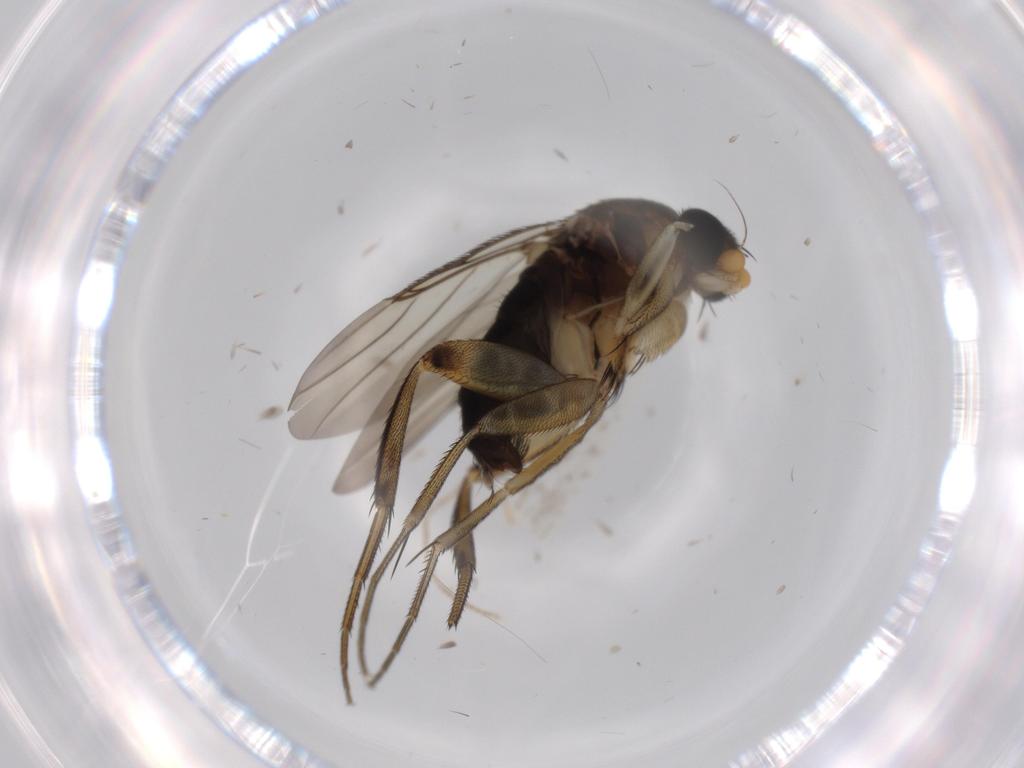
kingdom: Animalia
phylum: Arthropoda
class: Insecta
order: Diptera
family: Phoridae
